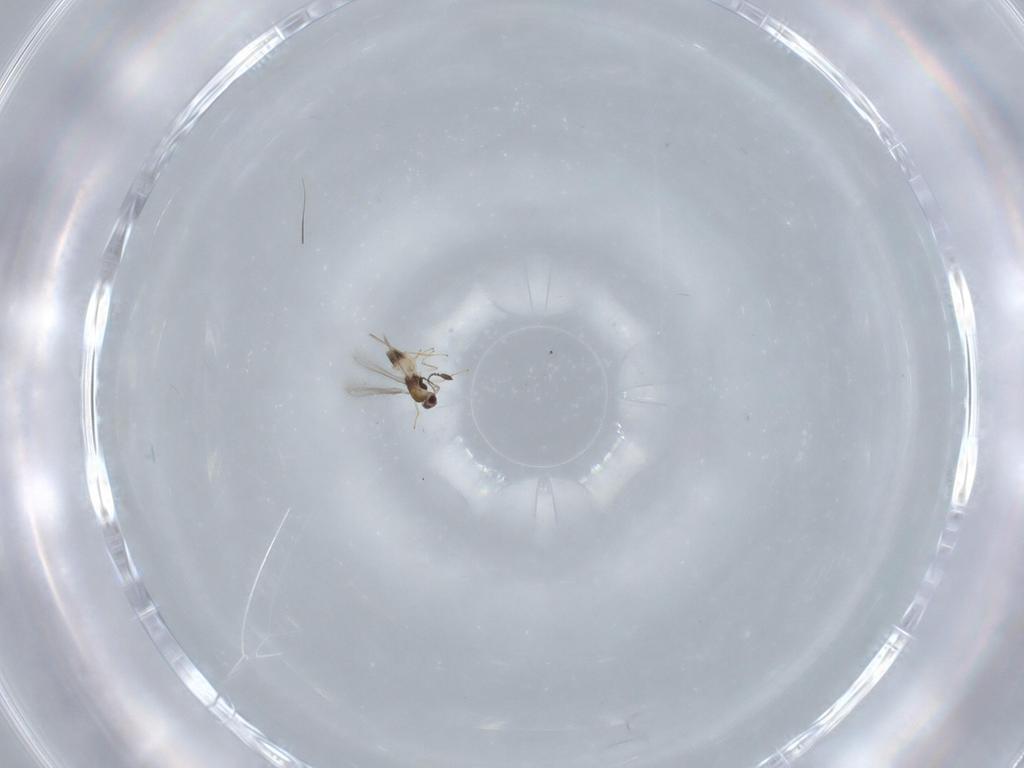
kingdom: Animalia
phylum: Arthropoda
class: Insecta
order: Hymenoptera
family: Mymaridae
